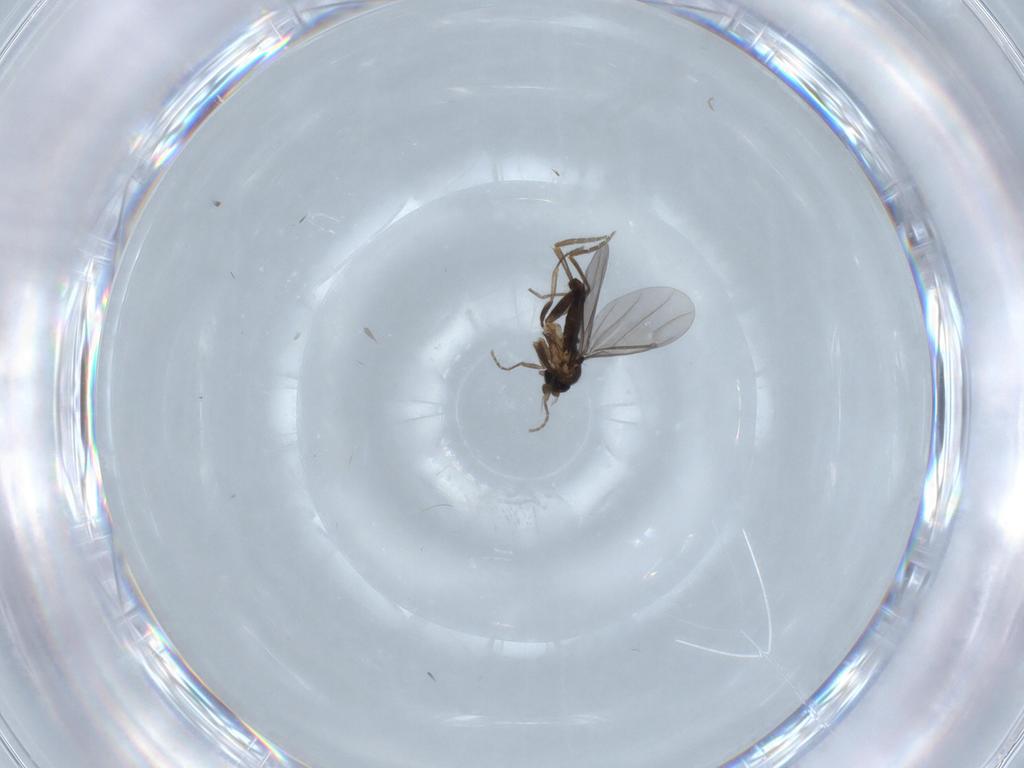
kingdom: Animalia
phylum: Arthropoda
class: Insecta
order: Diptera
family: Phoridae
